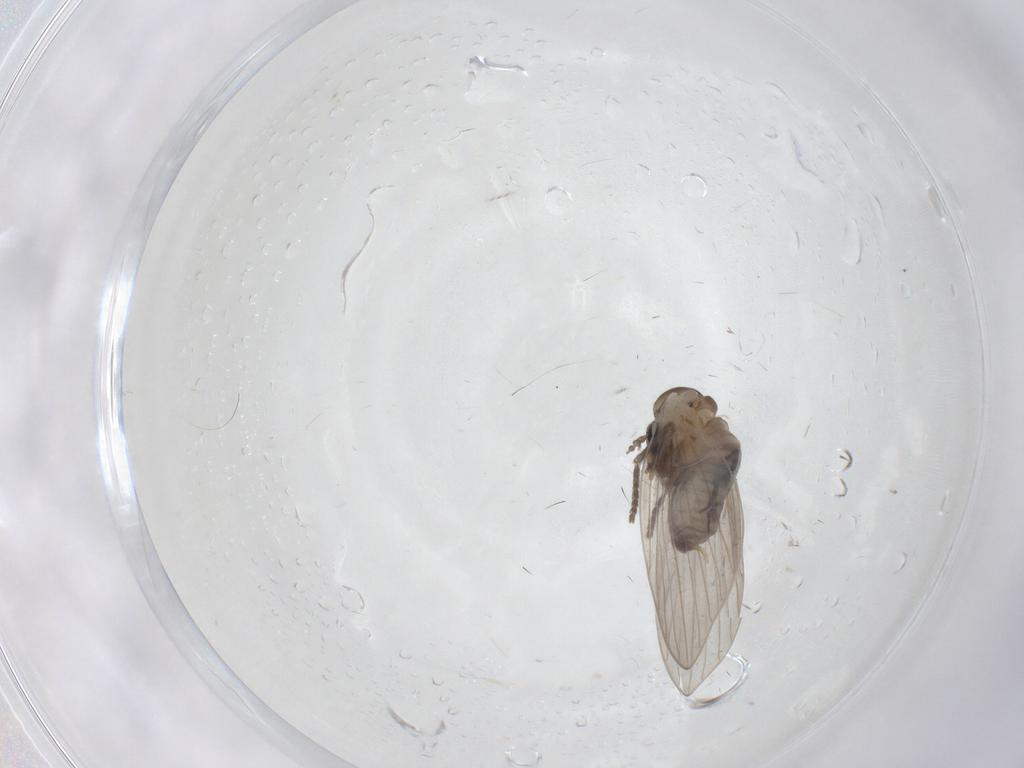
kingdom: Animalia
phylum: Arthropoda
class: Insecta
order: Diptera
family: Psychodidae
